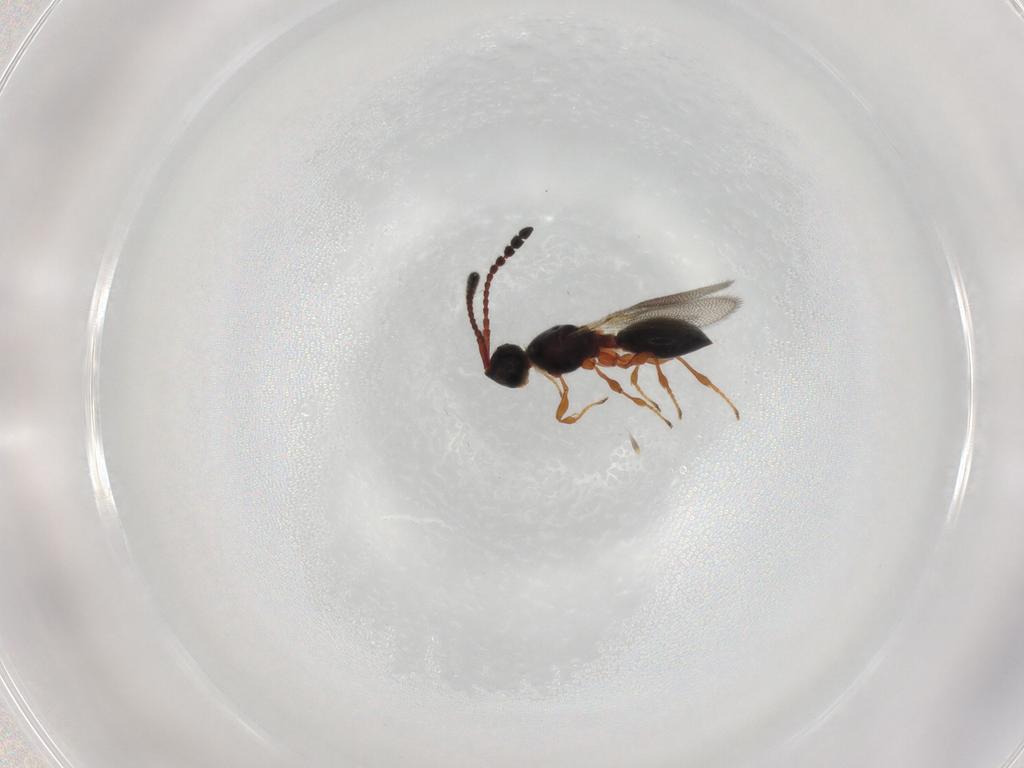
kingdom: Animalia
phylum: Arthropoda
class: Insecta
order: Hymenoptera
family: Diapriidae
